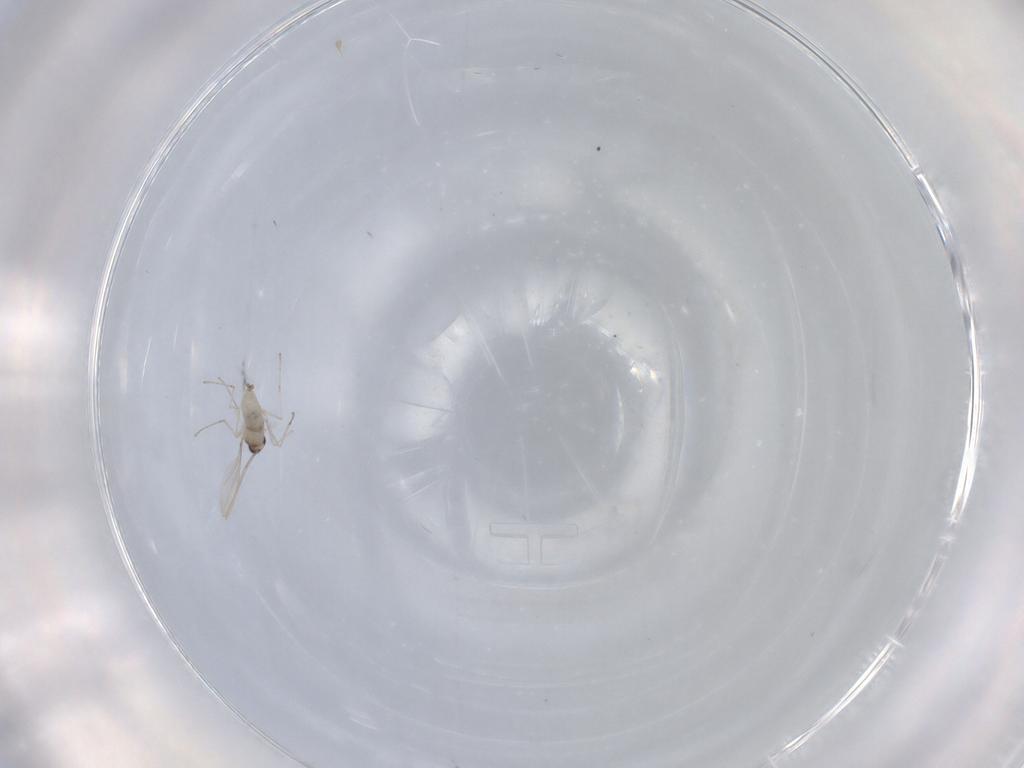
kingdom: Animalia
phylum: Arthropoda
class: Insecta
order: Diptera
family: Cecidomyiidae
